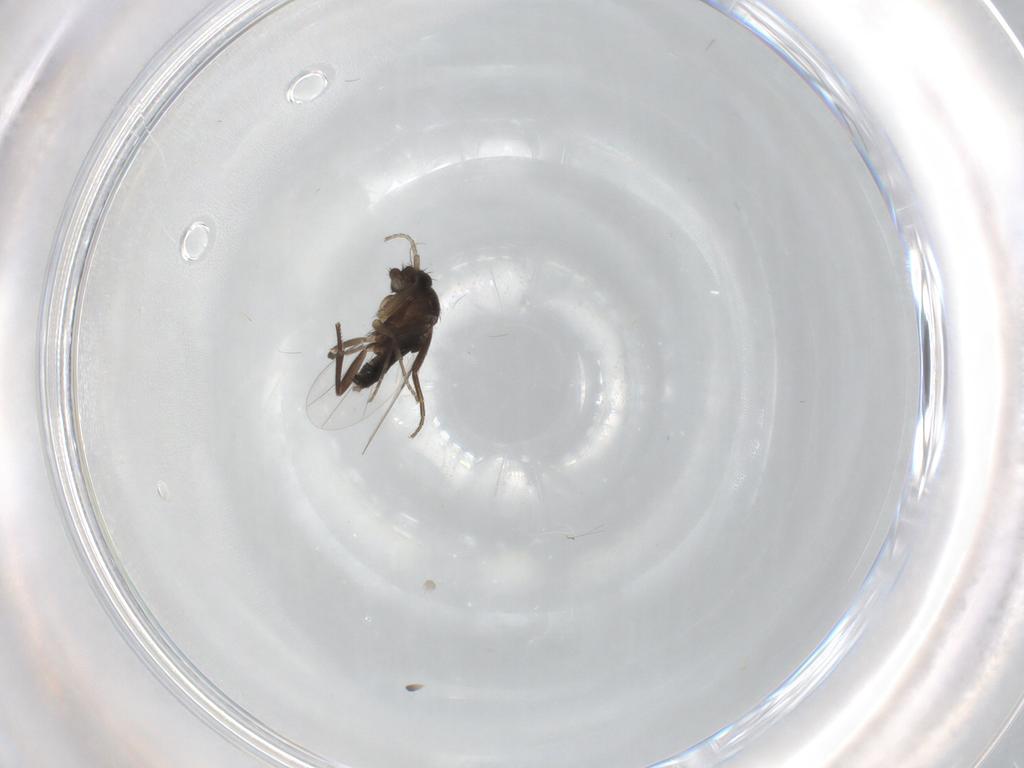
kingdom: Animalia
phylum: Arthropoda
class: Insecta
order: Diptera
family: Phoridae
